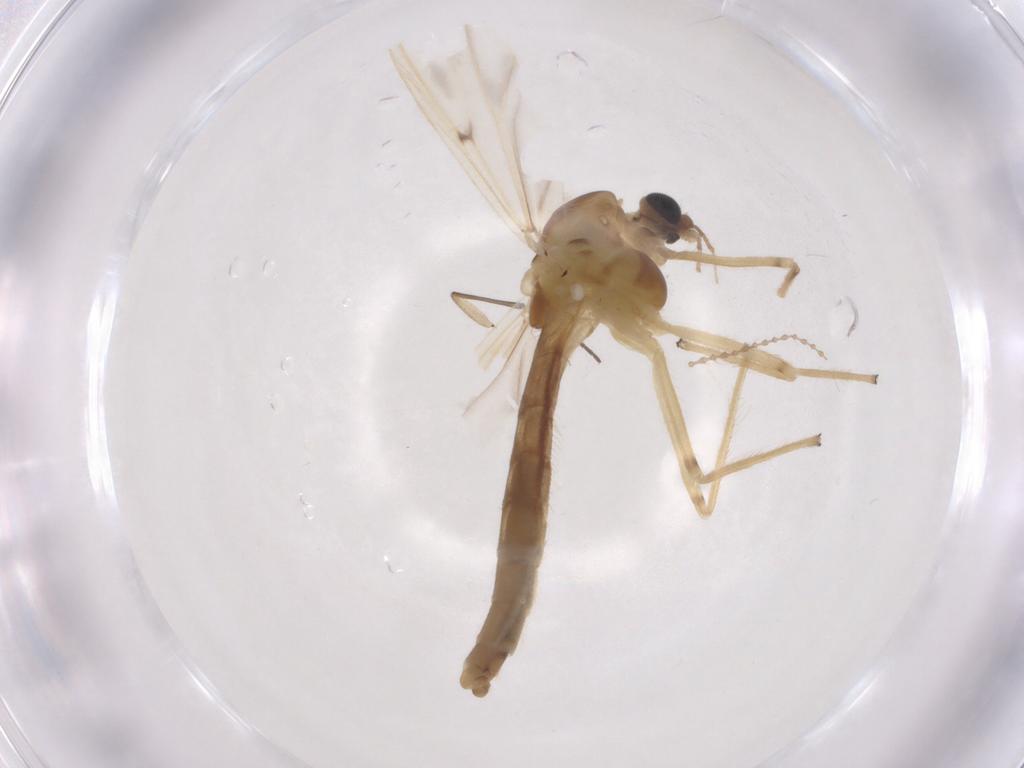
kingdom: Animalia
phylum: Arthropoda
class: Insecta
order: Diptera
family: Chironomidae
